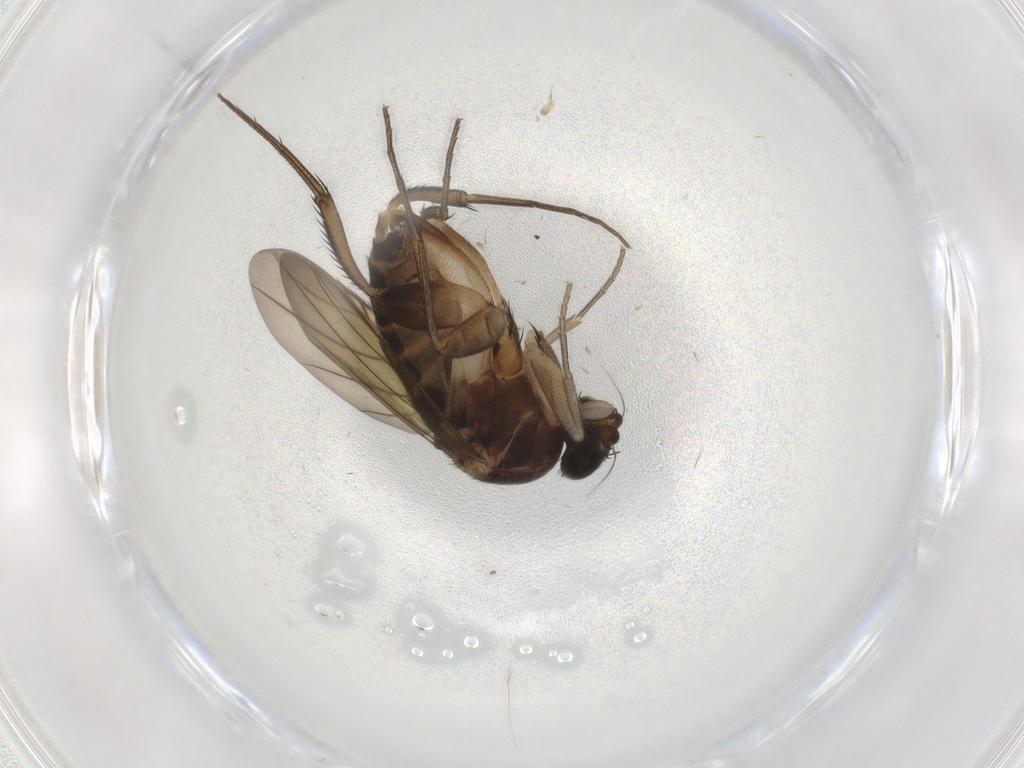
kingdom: Animalia
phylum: Arthropoda
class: Insecta
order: Diptera
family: Phoridae
